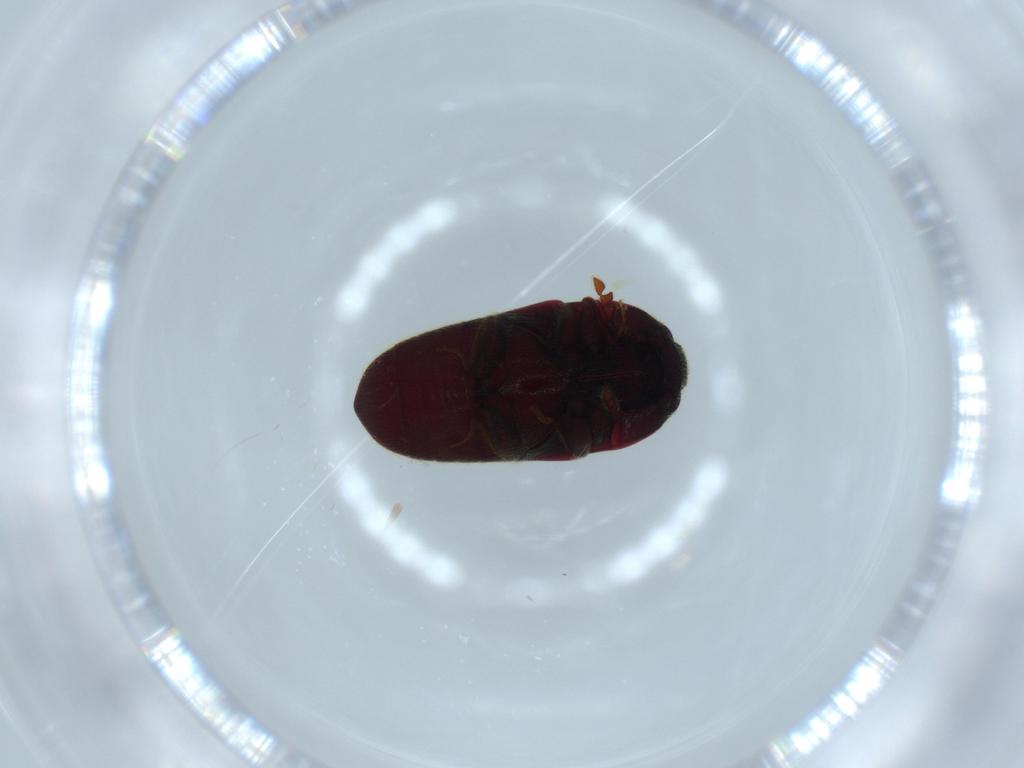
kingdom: Animalia
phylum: Arthropoda
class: Insecta
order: Coleoptera
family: Throscidae
